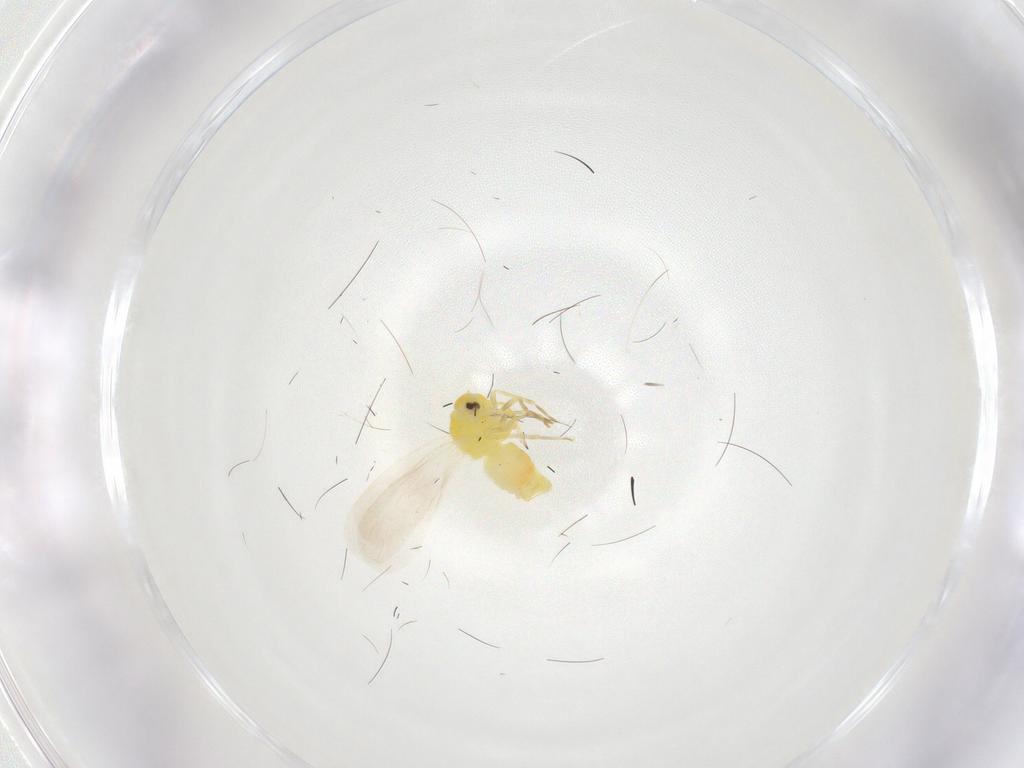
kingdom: Animalia
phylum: Arthropoda
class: Insecta
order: Hemiptera
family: Aleyrodidae
